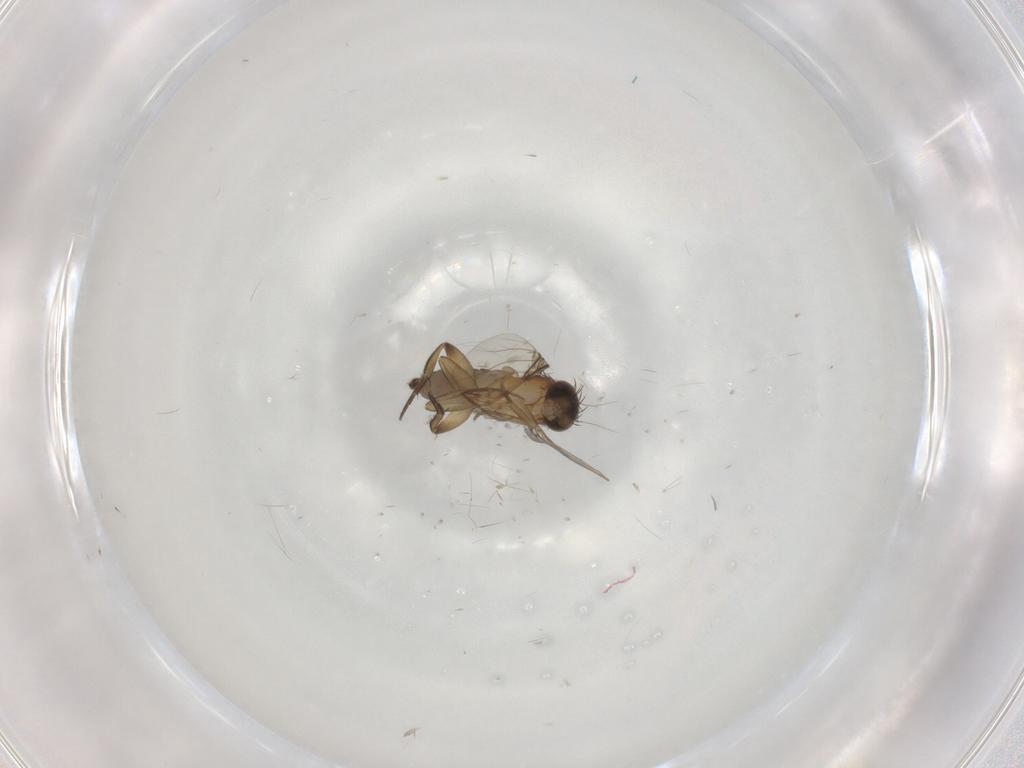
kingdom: Animalia
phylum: Arthropoda
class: Insecta
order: Diptera
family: Phoridae
